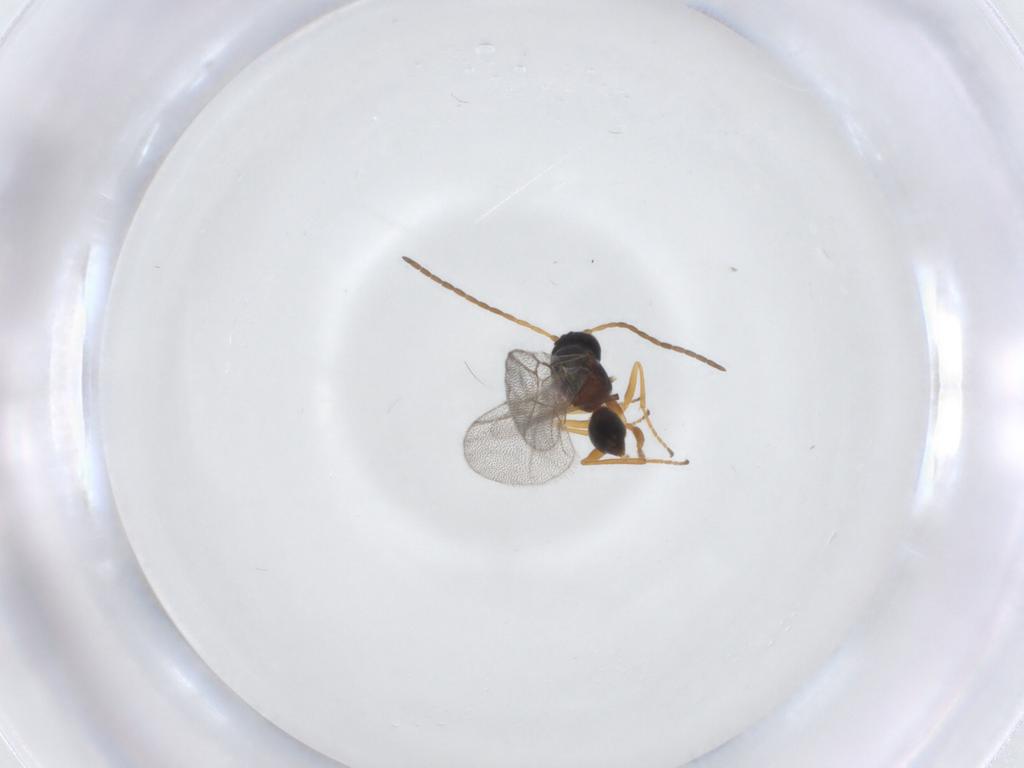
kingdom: Animalia
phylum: Arthropoda
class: Insecta
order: Hymenoptera
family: Cynipidae
